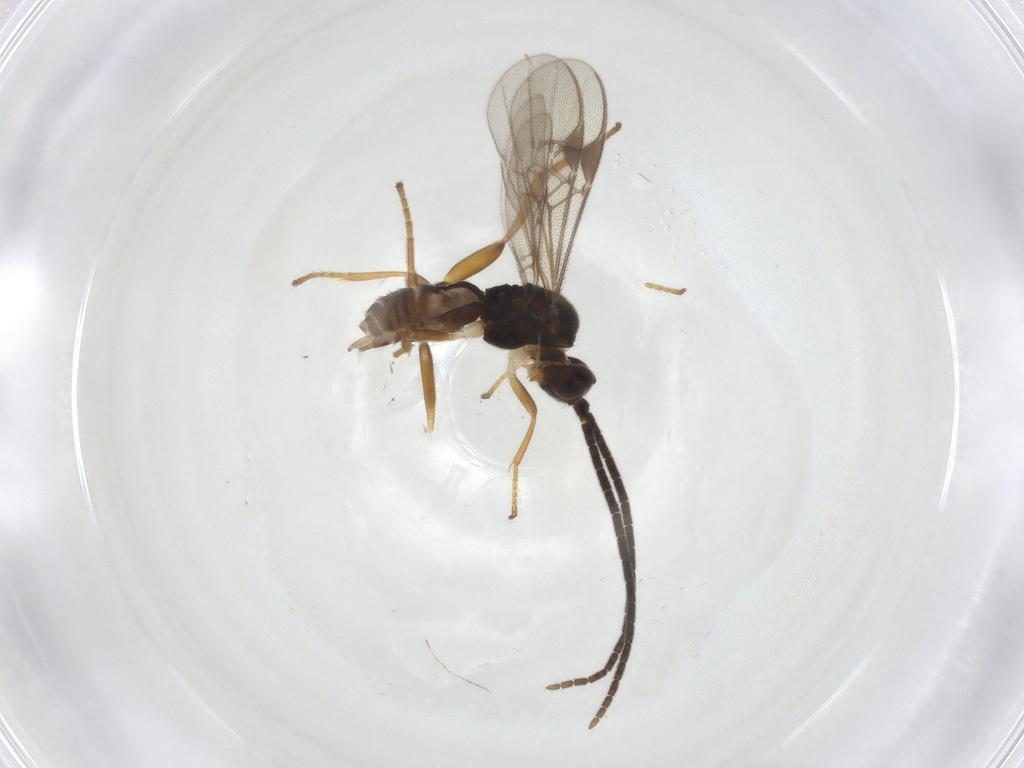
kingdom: Animalia
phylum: Arthropoda
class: Insecta
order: Hymenoptera
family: Braconidae
